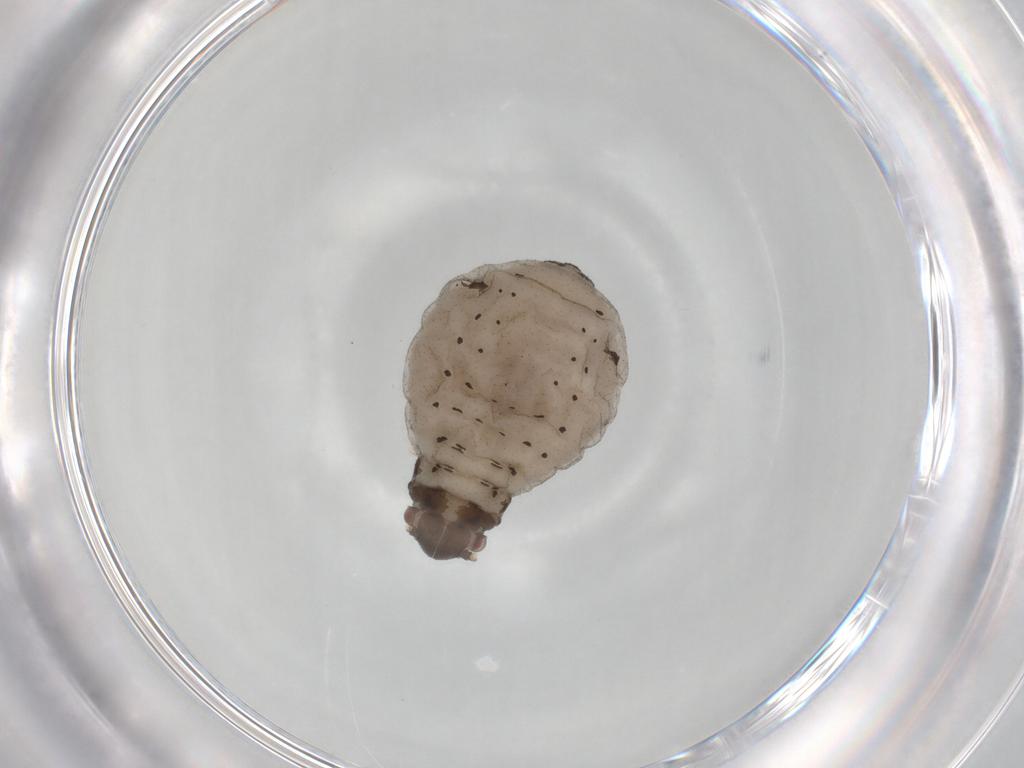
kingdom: Animalia
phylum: Arthropoda
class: Insecta
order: Hemiptera
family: Aphididae
